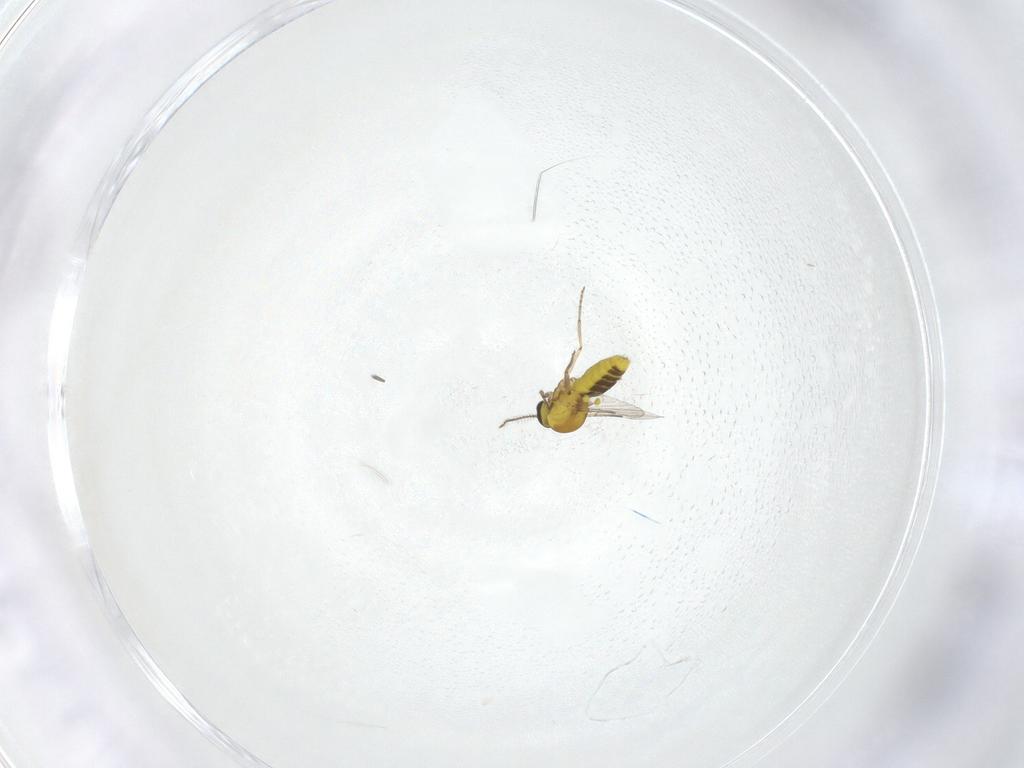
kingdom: Animalia
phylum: Arthropoda
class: Insecta
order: Diptera
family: Ceratopogonidae
